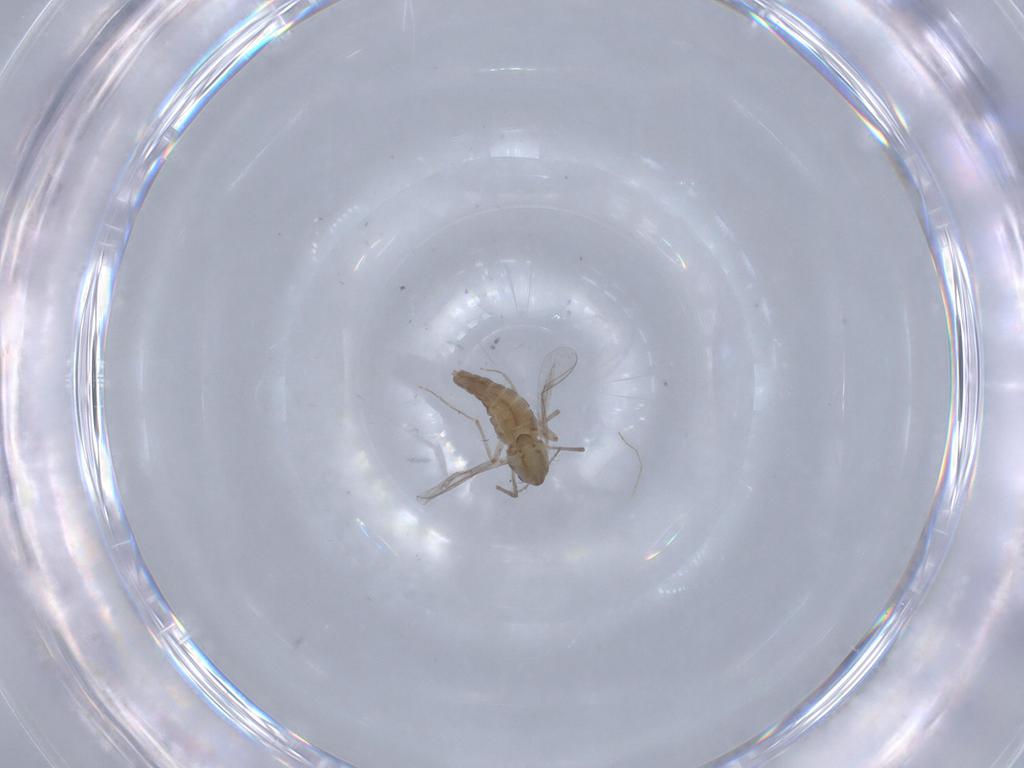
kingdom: Animalia
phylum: Arthropoda
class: Insecta
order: Diptera
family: Chironomidae
